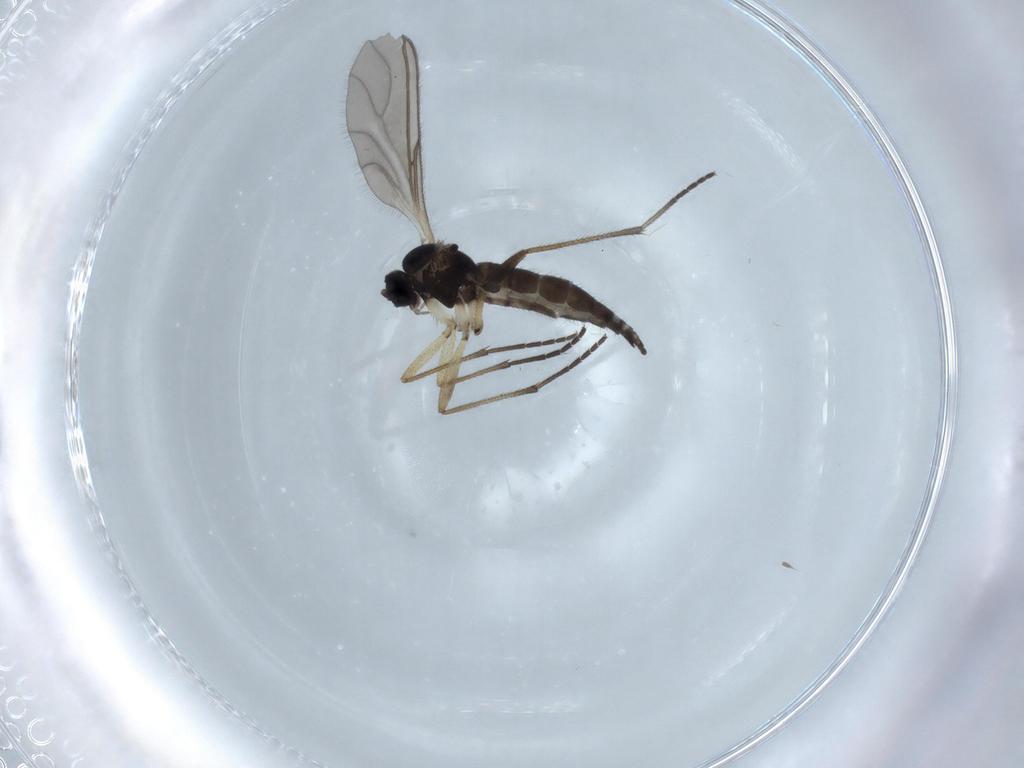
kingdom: Animalia
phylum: Arthropoda
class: Insecta
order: Diptera
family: Sciaridae
